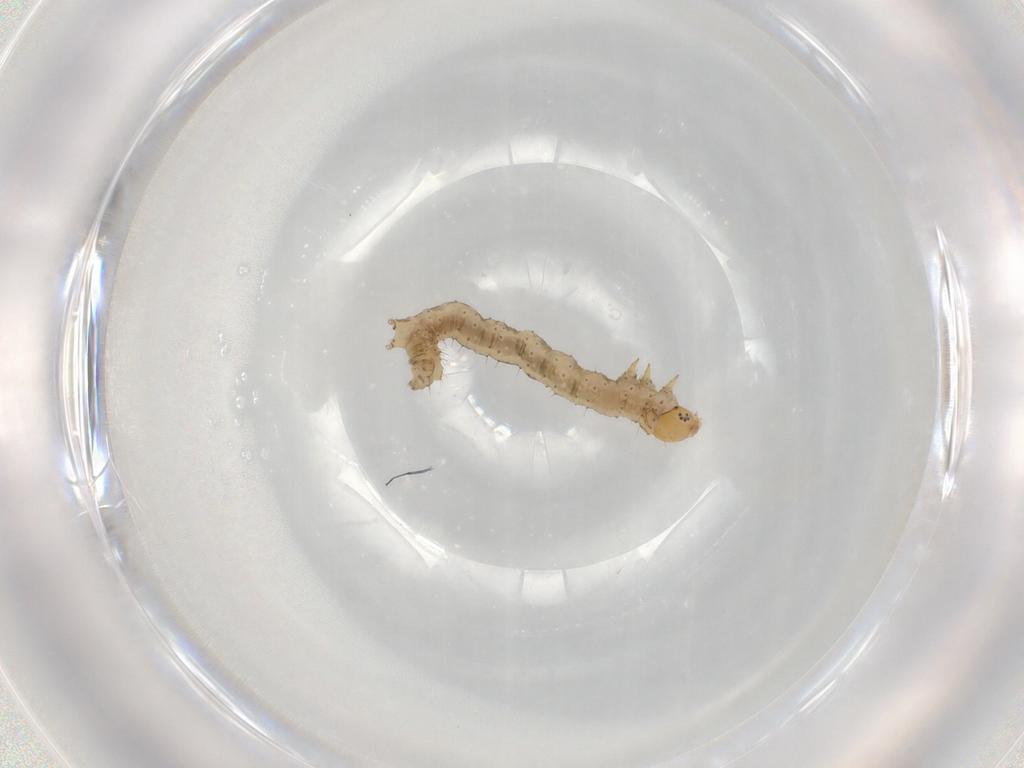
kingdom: Animalia
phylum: Arthropoda
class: Insecta
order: Lepidoptera
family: Geometridae
